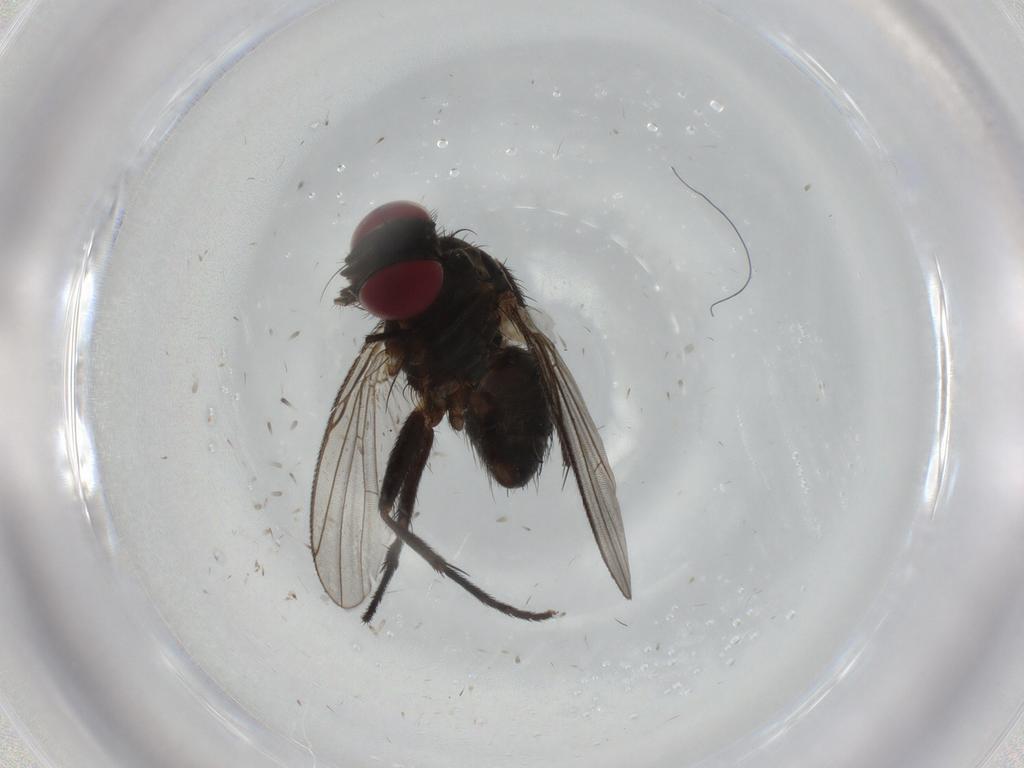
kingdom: Animalia
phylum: Arthropoda
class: Insecta
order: Diptera
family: Muscidae
